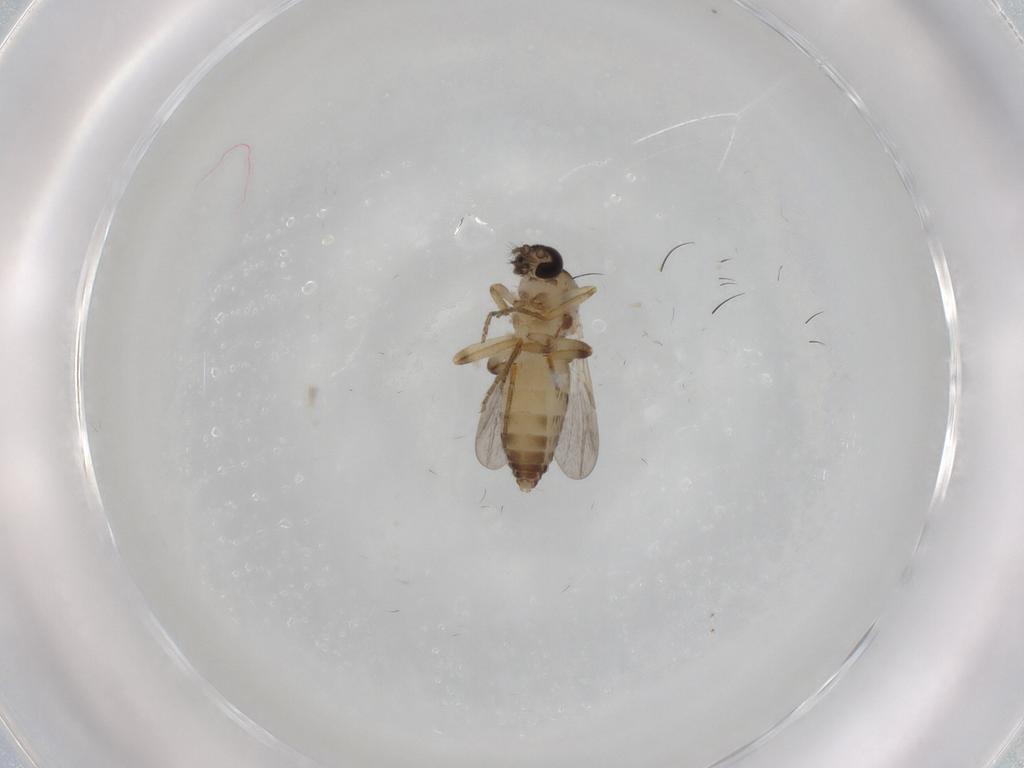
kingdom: Animalia
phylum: Arthropoda
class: Insecta
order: Diptera
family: Ceratopogonidae
